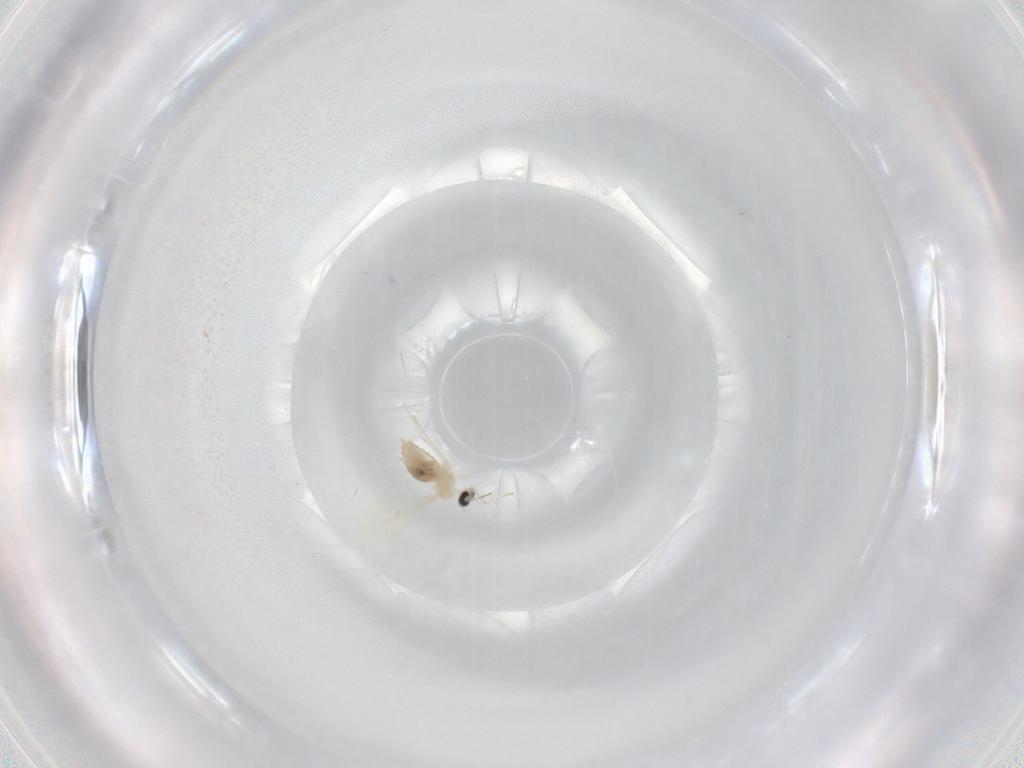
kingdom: Animalia
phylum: Arthropoda
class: Insecta
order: Diptera
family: Cecidomyiidae
